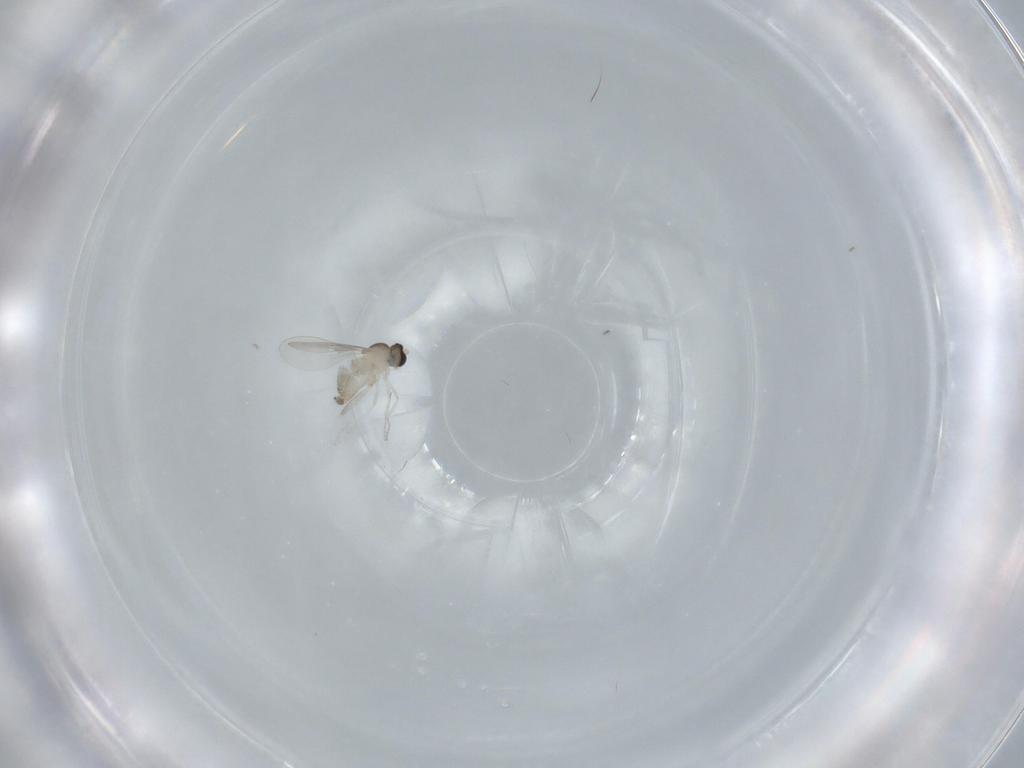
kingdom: Animalia
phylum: Arthropoda
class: Insecta
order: Diptera
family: Cecidomyiidae
